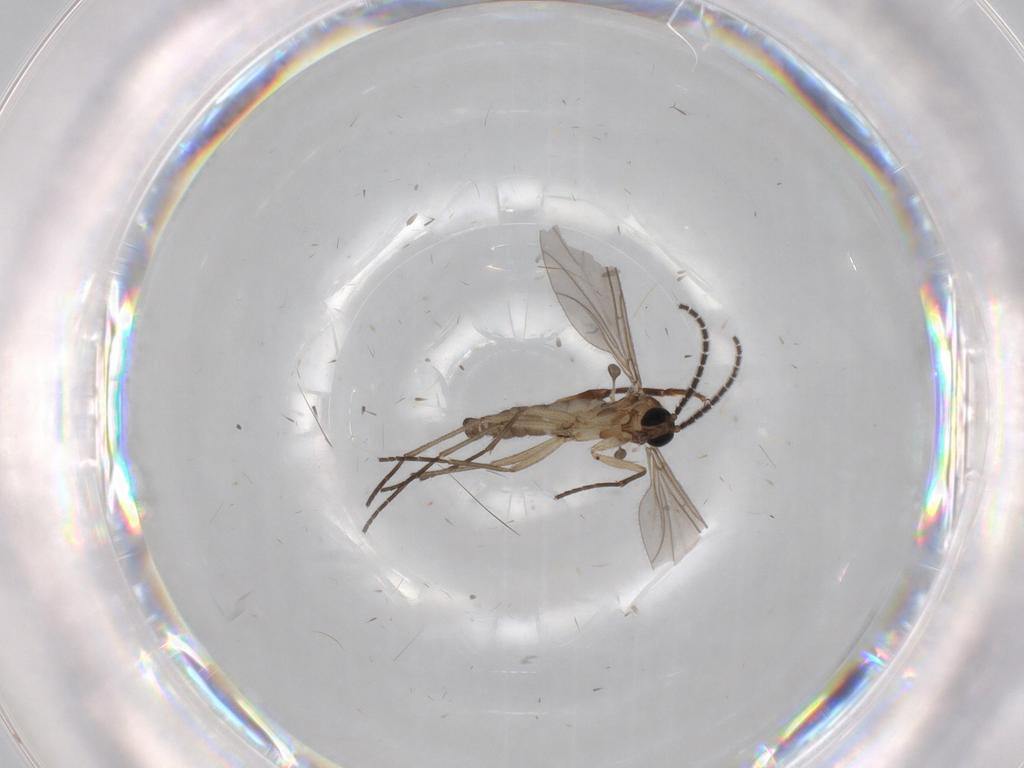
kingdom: Animalia
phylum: Arthropoda
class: Insecta
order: Diptera
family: Sciaridae
